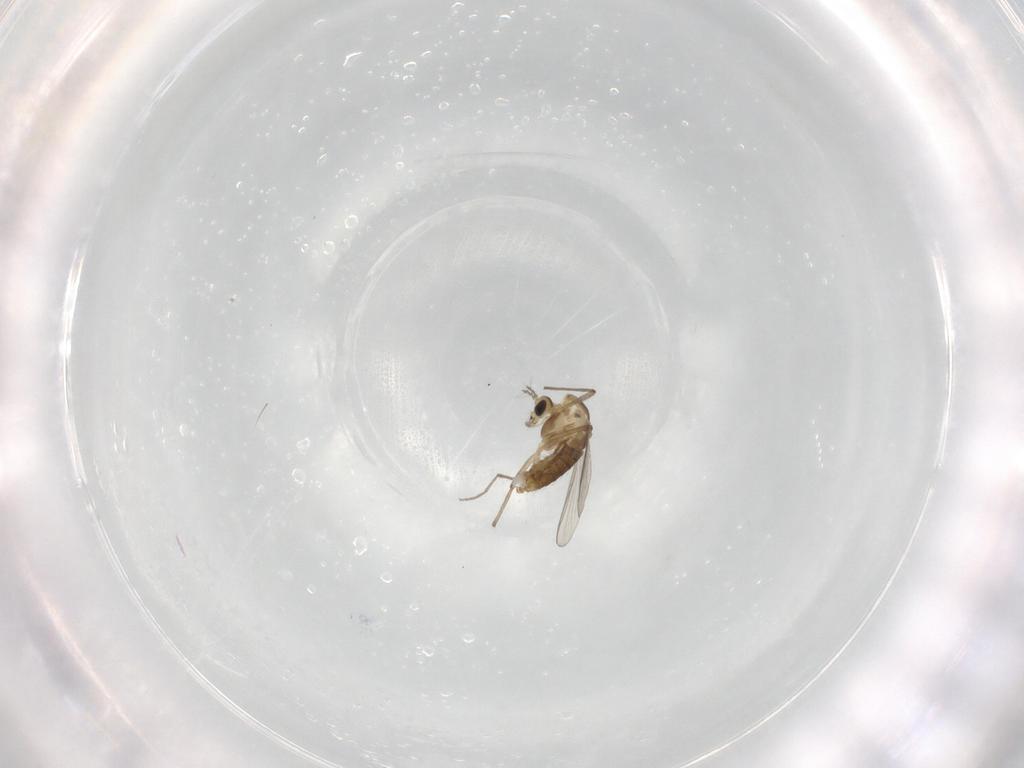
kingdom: Animalia
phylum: Arthropoda
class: Insecta
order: Diptera
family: Chironomidae
